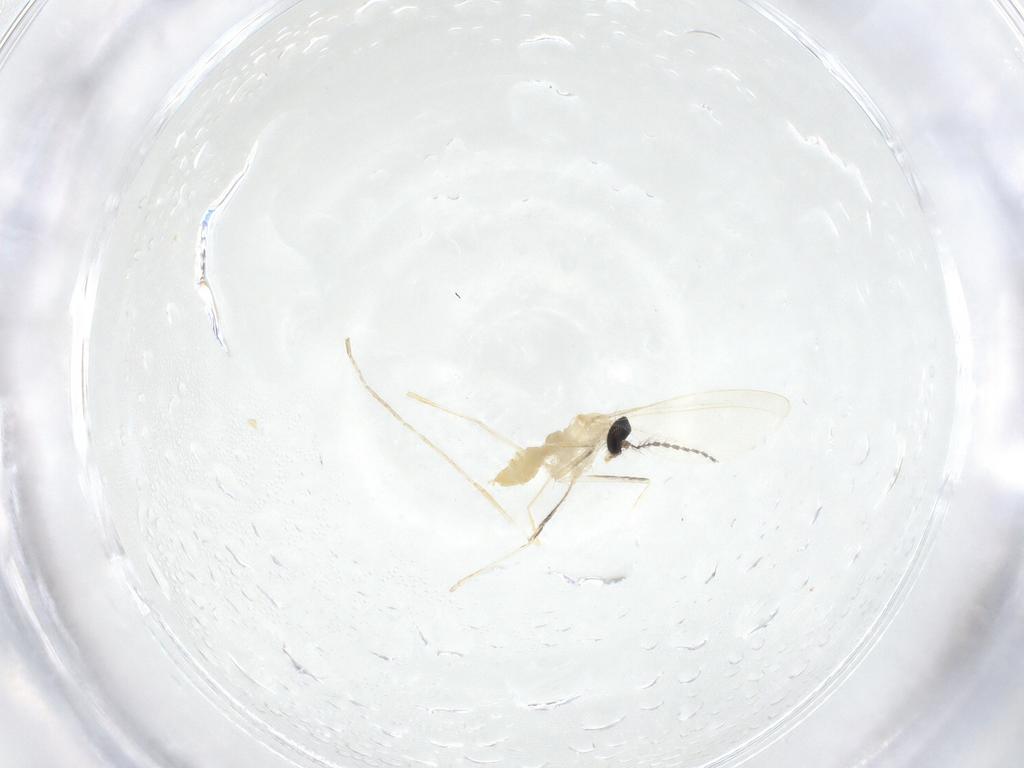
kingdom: Animalia
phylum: Arthropoda
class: Insecta
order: Diptera
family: Cecidomyiidae
